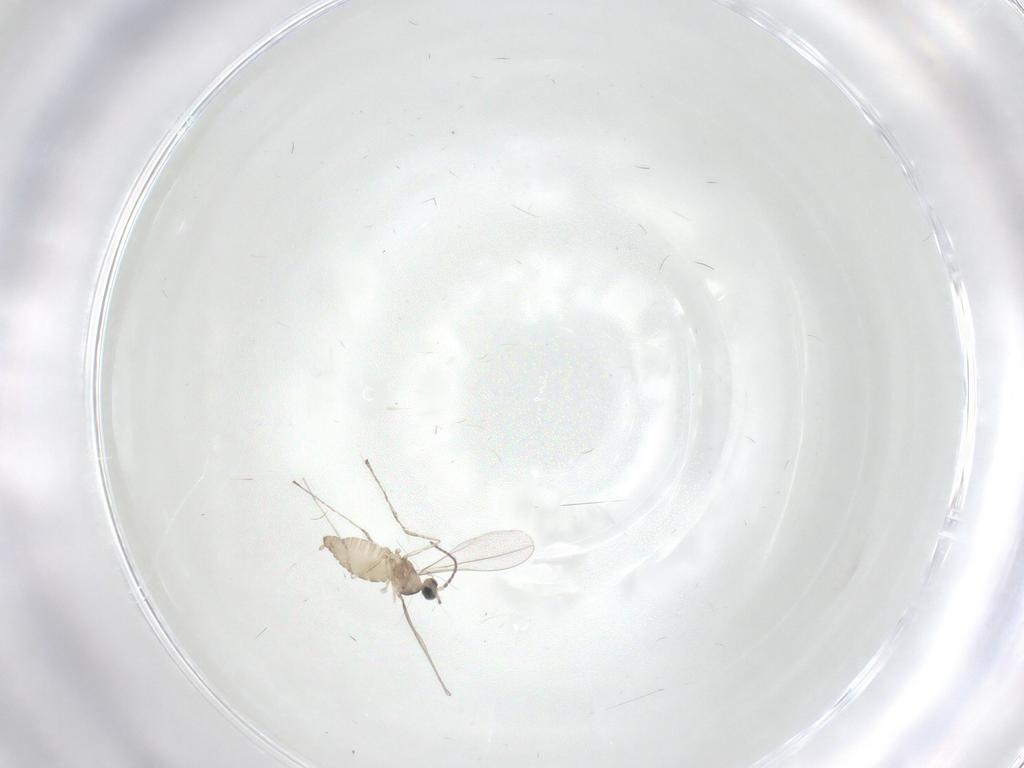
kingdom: Animalia
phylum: Arthropoda
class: Insecta
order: Diptera
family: Cecidomyiidae
